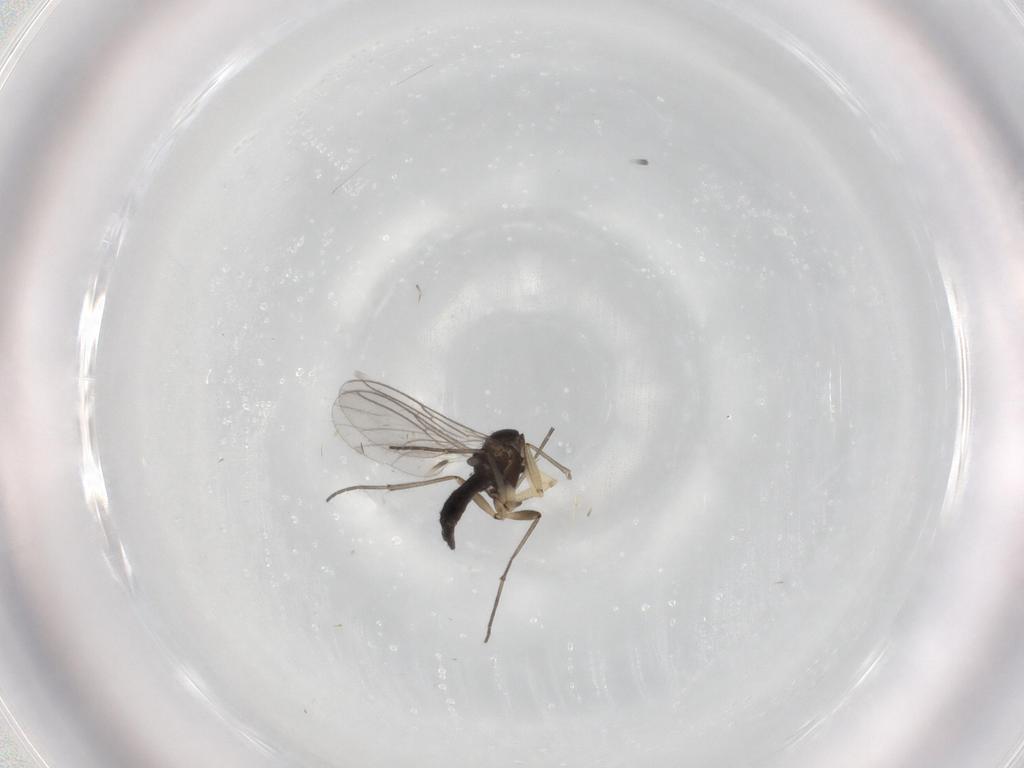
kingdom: Animalia
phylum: Arthropoda
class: Insecta
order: Diptera
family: Sciaridae
